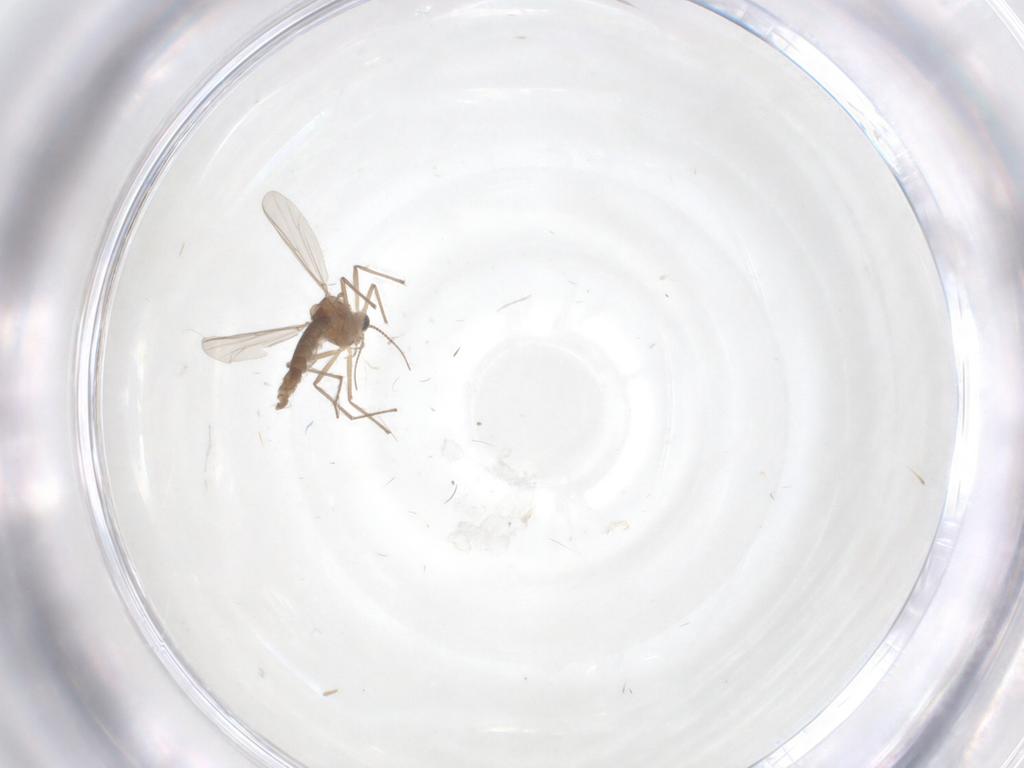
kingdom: Animalia
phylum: Arthropoda
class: Insecta
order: Diptera
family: Chironomidae
